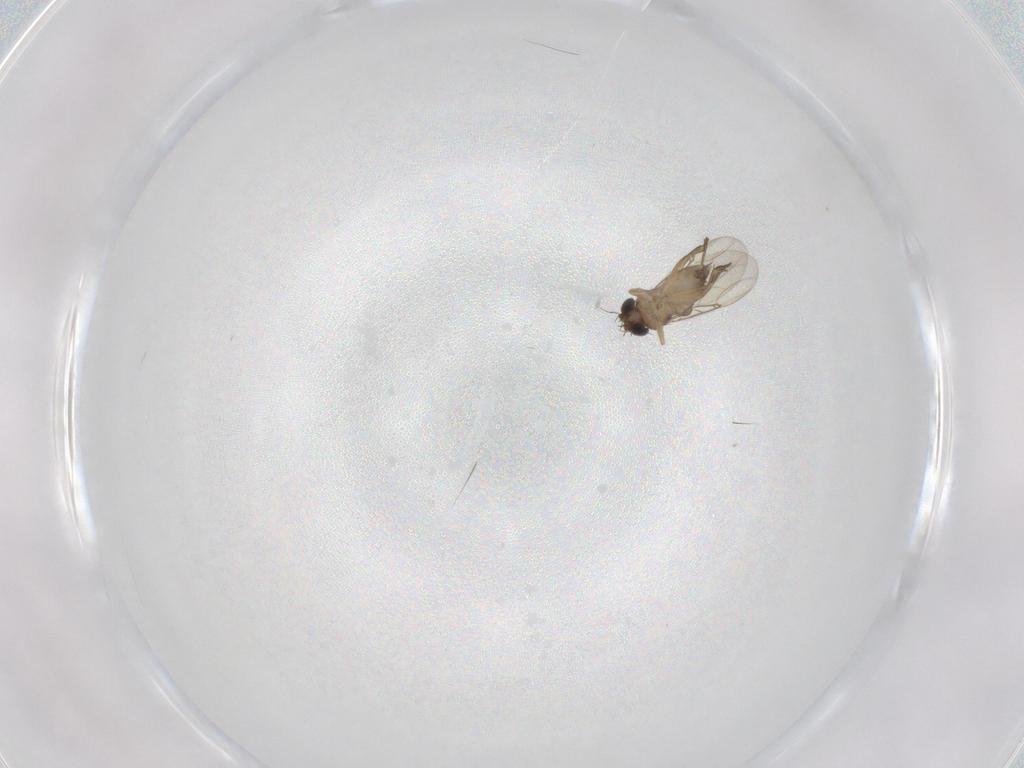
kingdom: Animalia
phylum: Arthropoda
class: Insecta
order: Diptera
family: Phoridae
